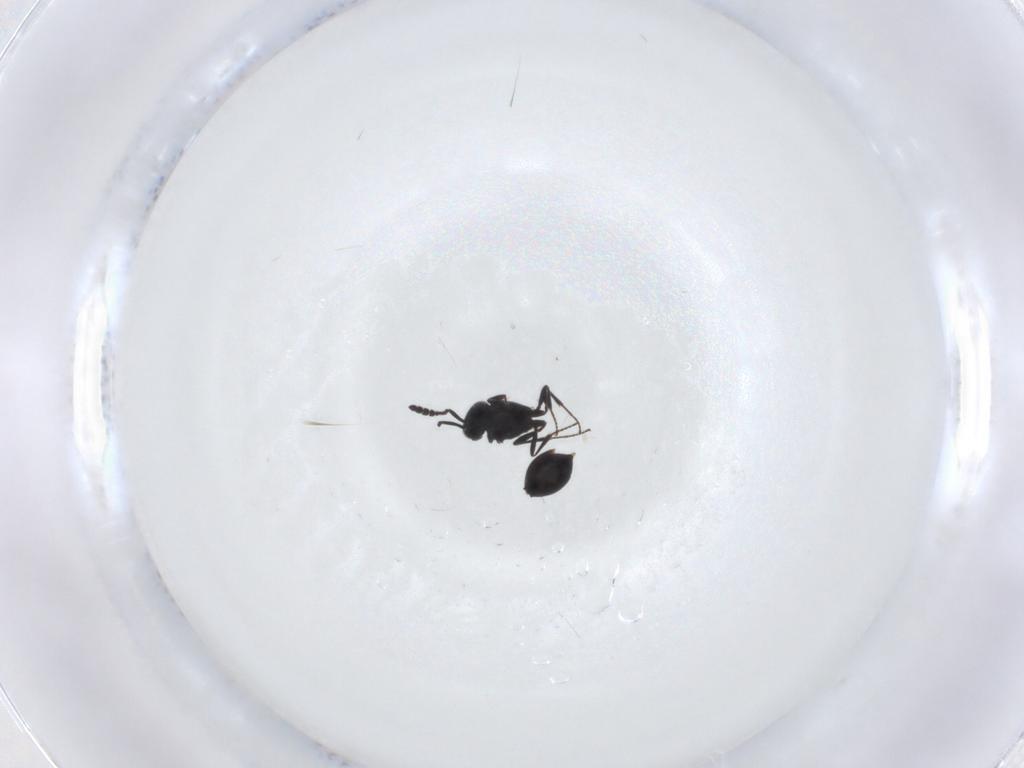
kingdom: Animalia
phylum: Arthropoda
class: Insecta
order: Hymenoptera
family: Scelionidae
